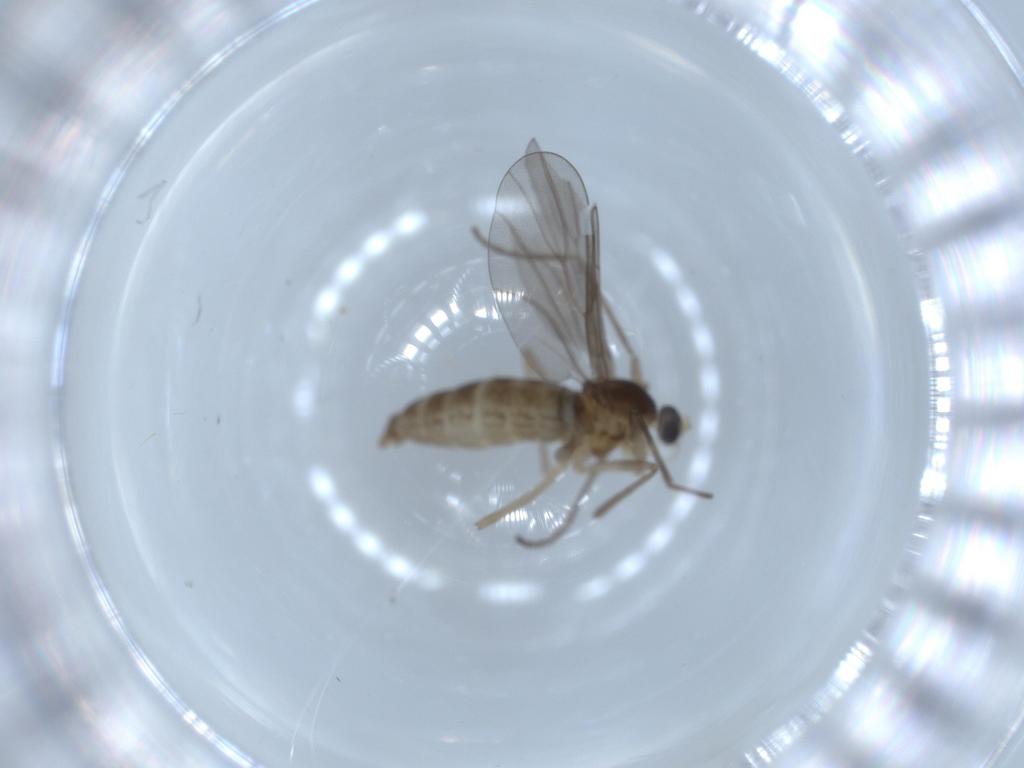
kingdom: Animalia
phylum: Arthropoda
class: Insecta
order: Diptera
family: Cecidomyiidae
